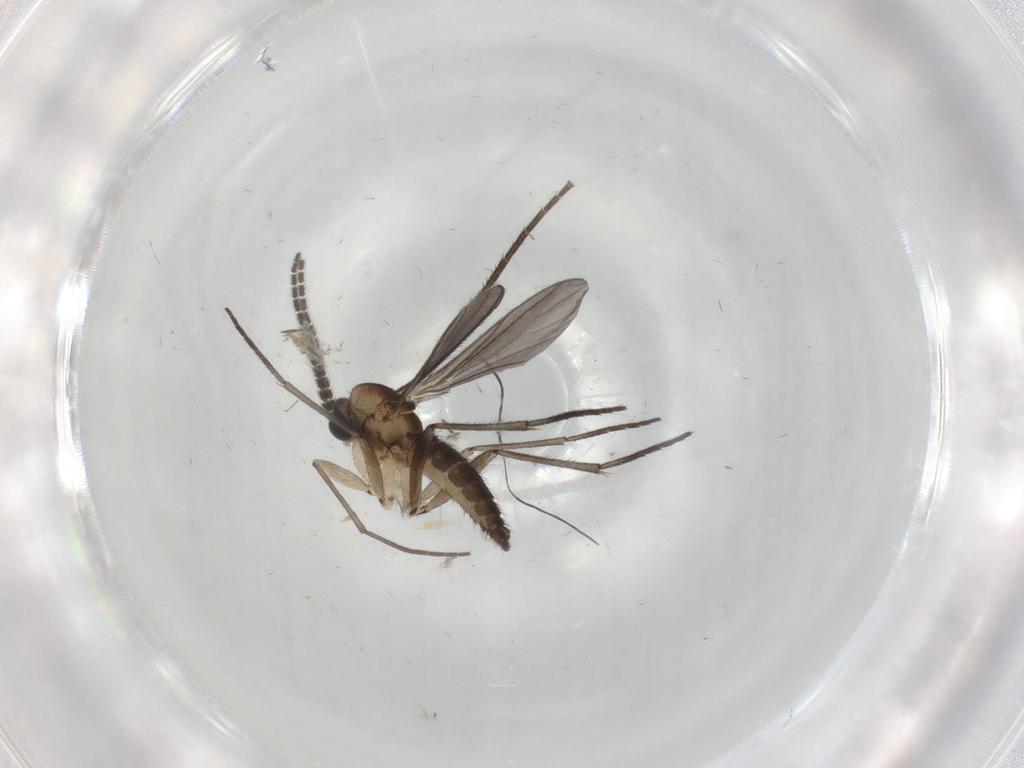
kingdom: Animalia
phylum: Arthropoda
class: Insecta
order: Diptera
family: Sciaridae
